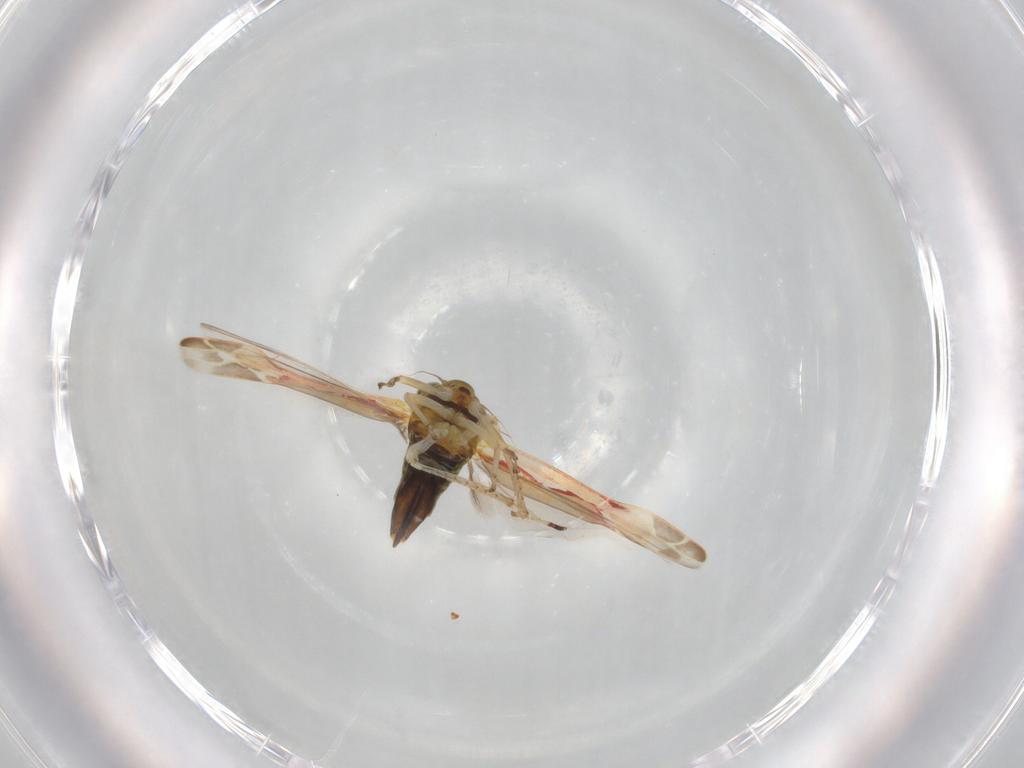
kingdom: Animalia
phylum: Arthropoda
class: Insecta
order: Hemiptera
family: Cicadellidae
